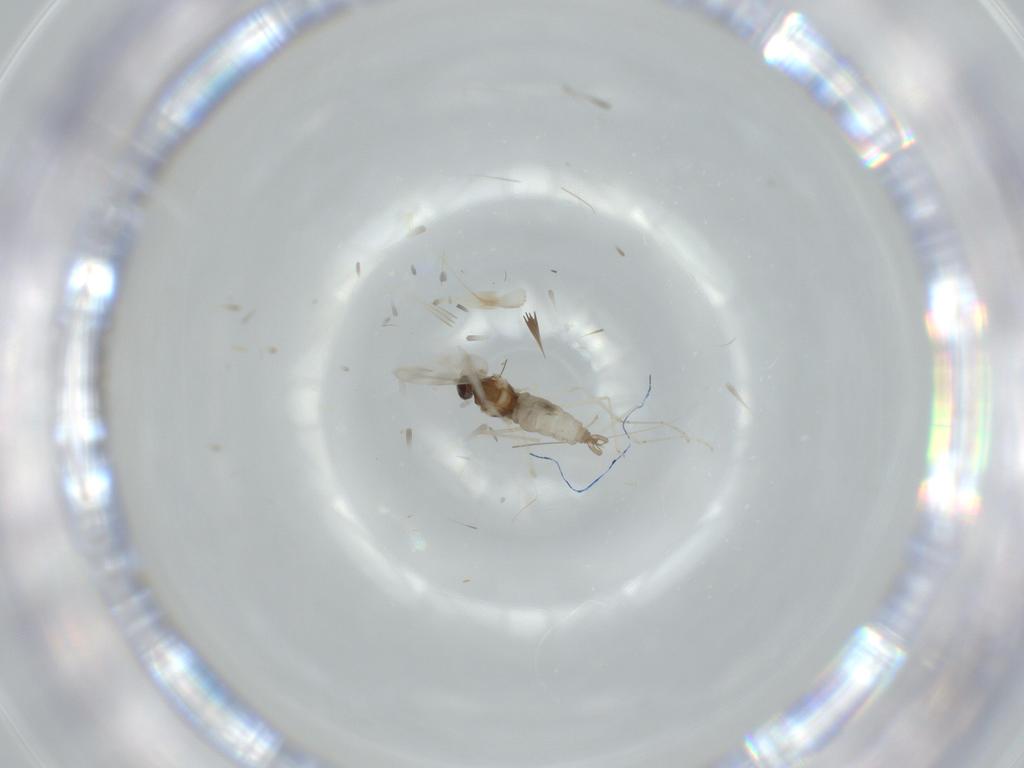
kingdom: Animalia
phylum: Arthropoda
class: Insecta
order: Diptera
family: Cecidomyiidae
